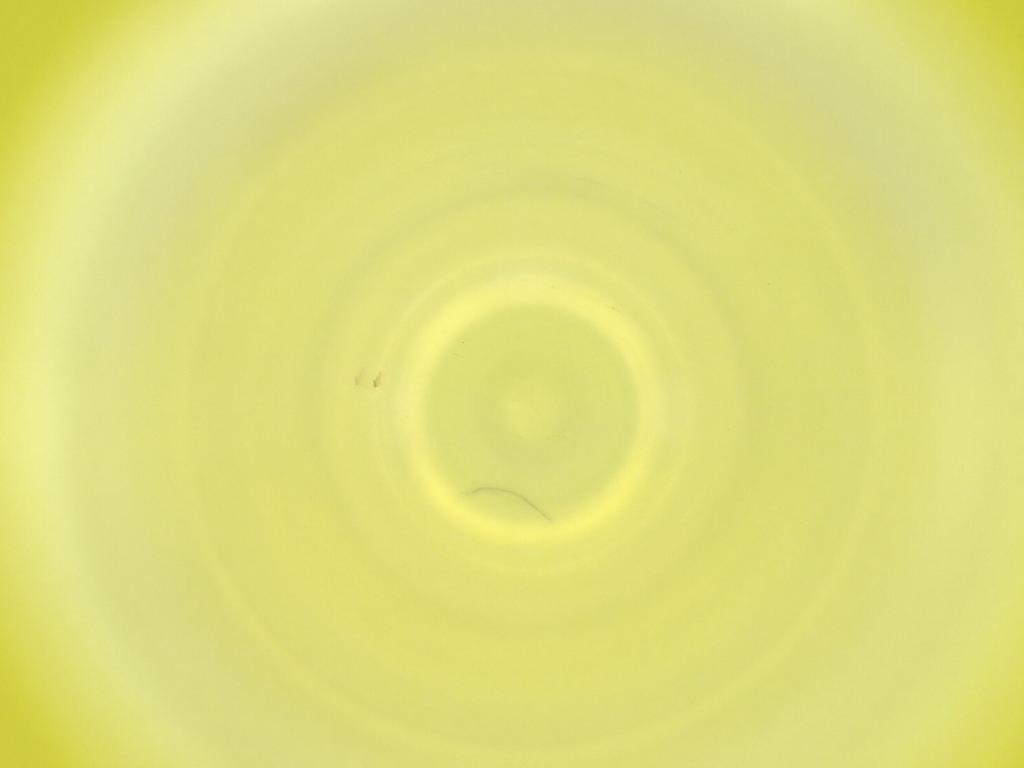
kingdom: Animalia
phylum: Arthropoda
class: Insecta
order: Diptera
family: Cecidomyiidae
